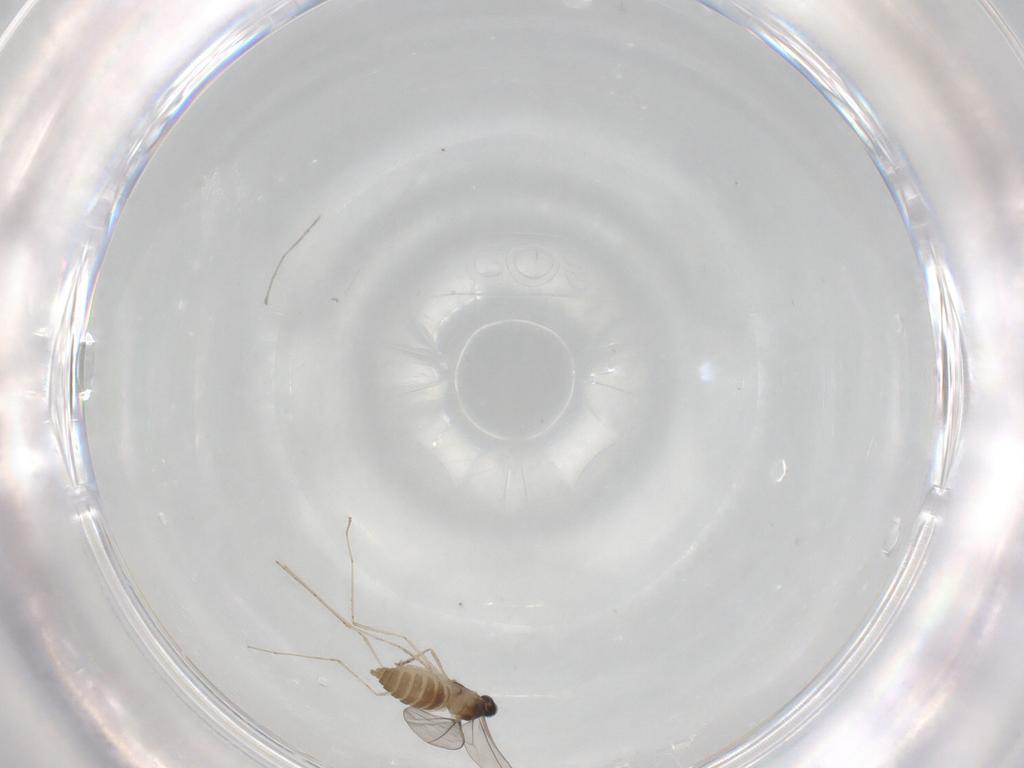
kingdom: Animalia
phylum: Arthropoda
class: Insecta
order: Diptera
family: Cecidomyiidae
